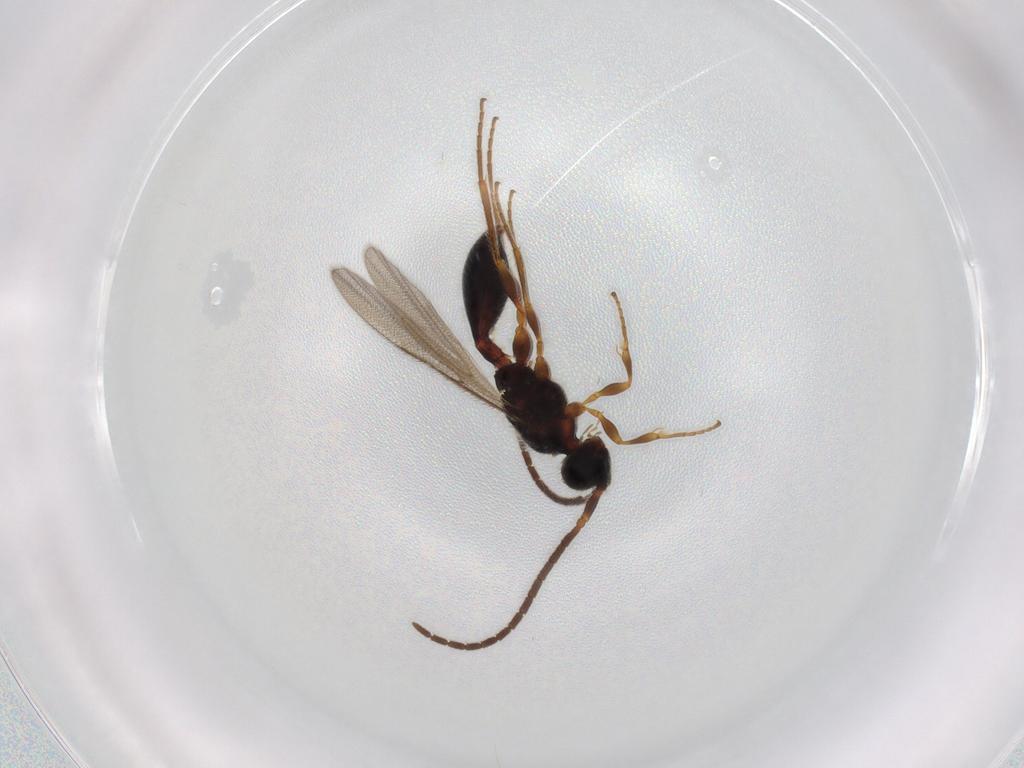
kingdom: Animalia
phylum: Arthropoda
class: Insecta
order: Hymenoptera
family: Diapriidae
